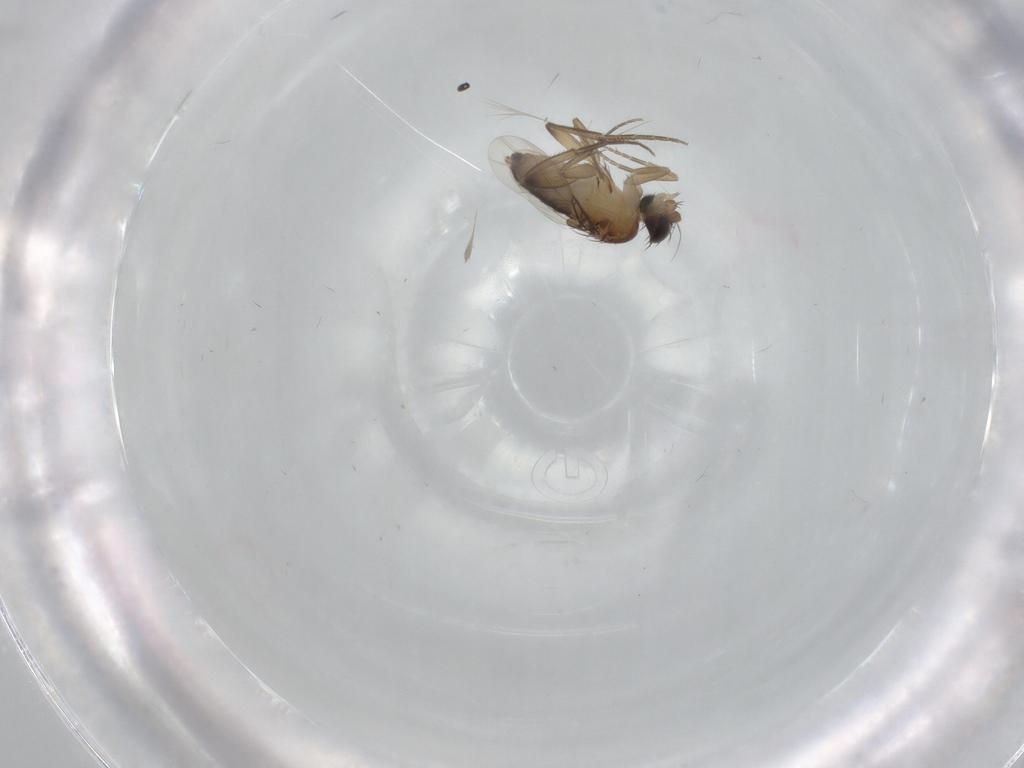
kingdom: Animalia
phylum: Arthropoda
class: Insecta
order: Diptera
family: Phoridae
